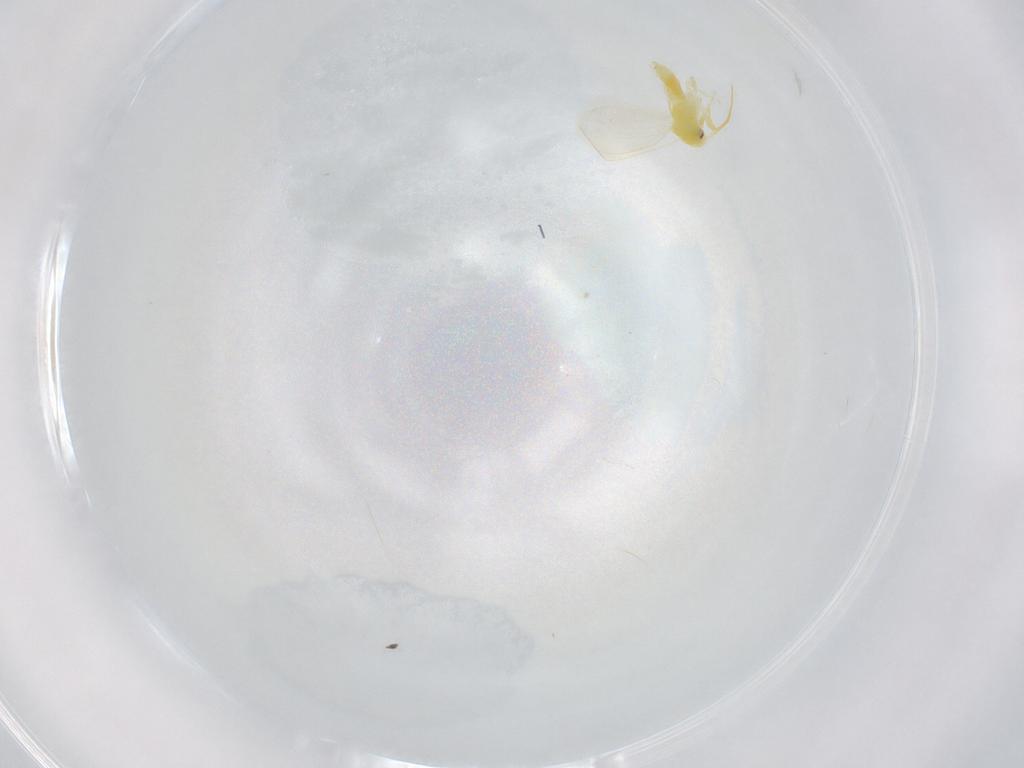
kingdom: Animalia
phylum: Arthropoda
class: Insecta
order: Hemiptera
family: Aleyrodidae
